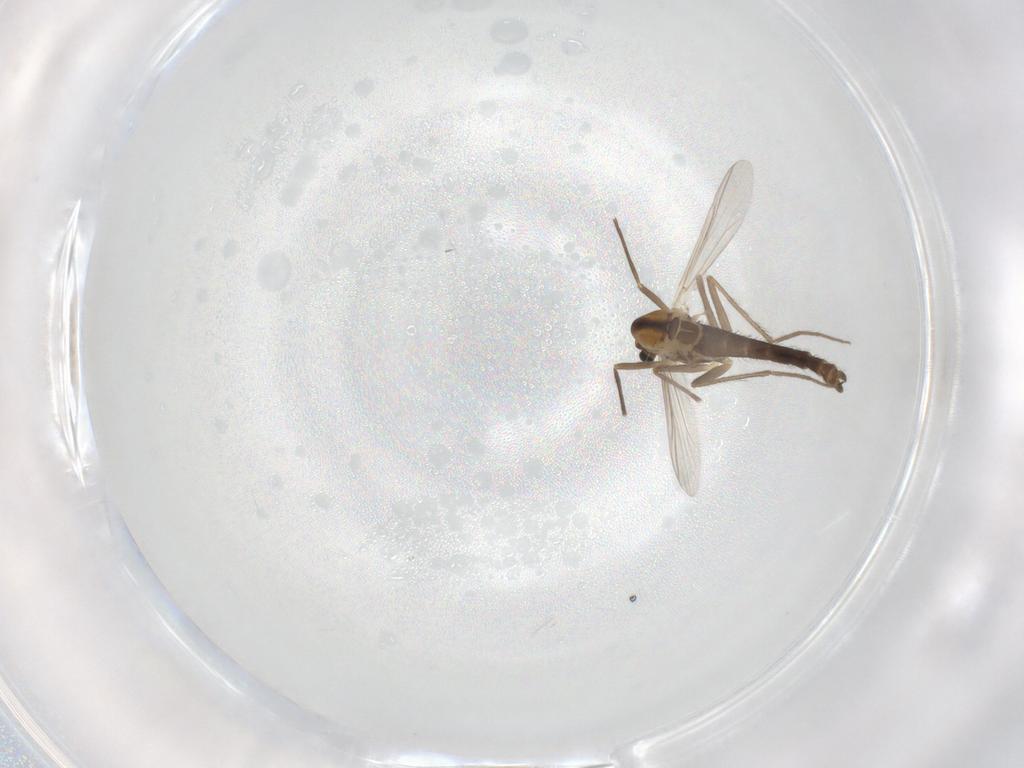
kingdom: Animalia
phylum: Arthropoda
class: Insecta
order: Diptera
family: Chironomidae
